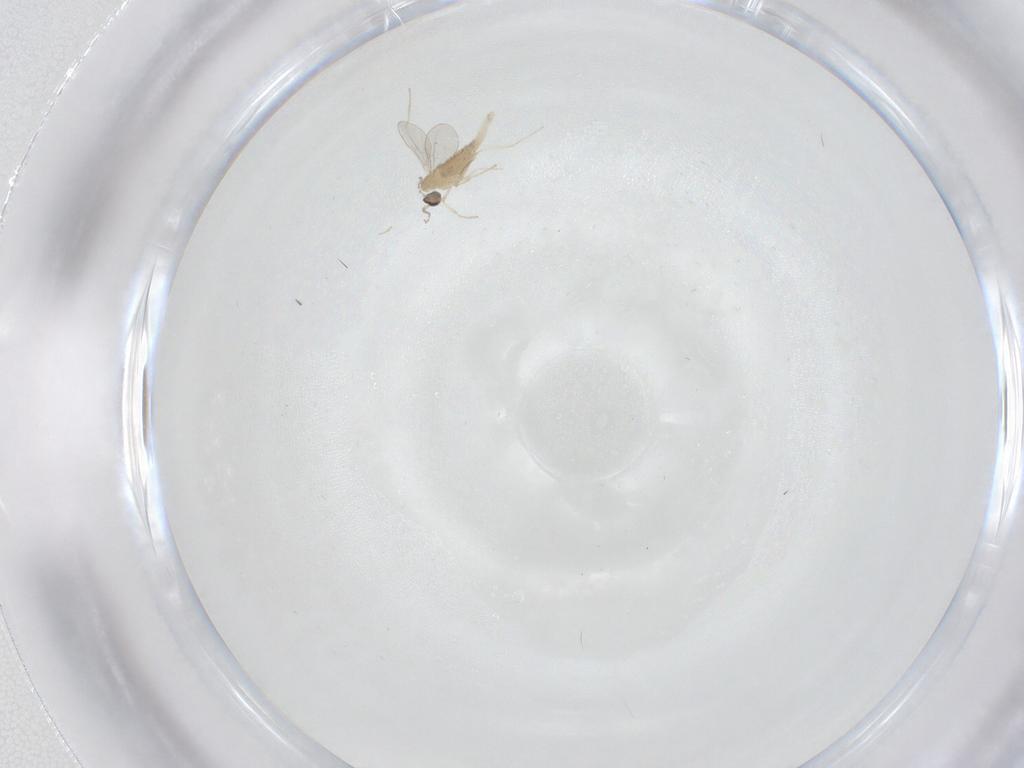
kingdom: Animalia
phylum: Arthropoda
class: Insecta
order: Diptera
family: Cecidomyiidae
